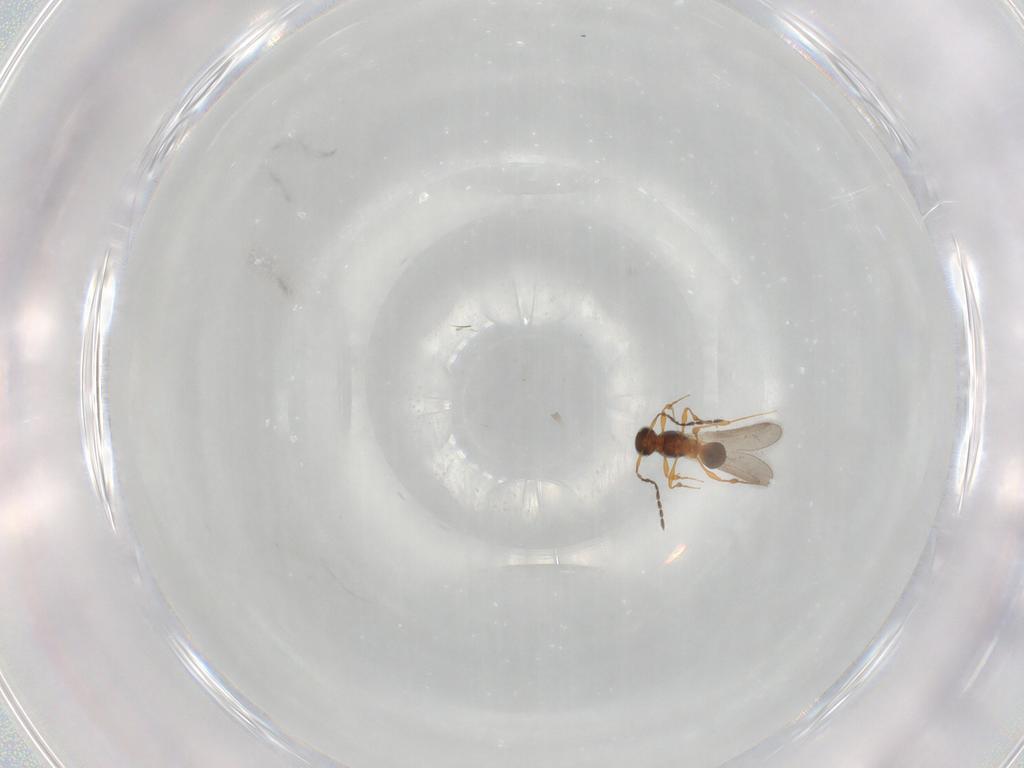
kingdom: Animalia
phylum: Arthropoda
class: Insecta
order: Hymenoptera
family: Platygastridae
